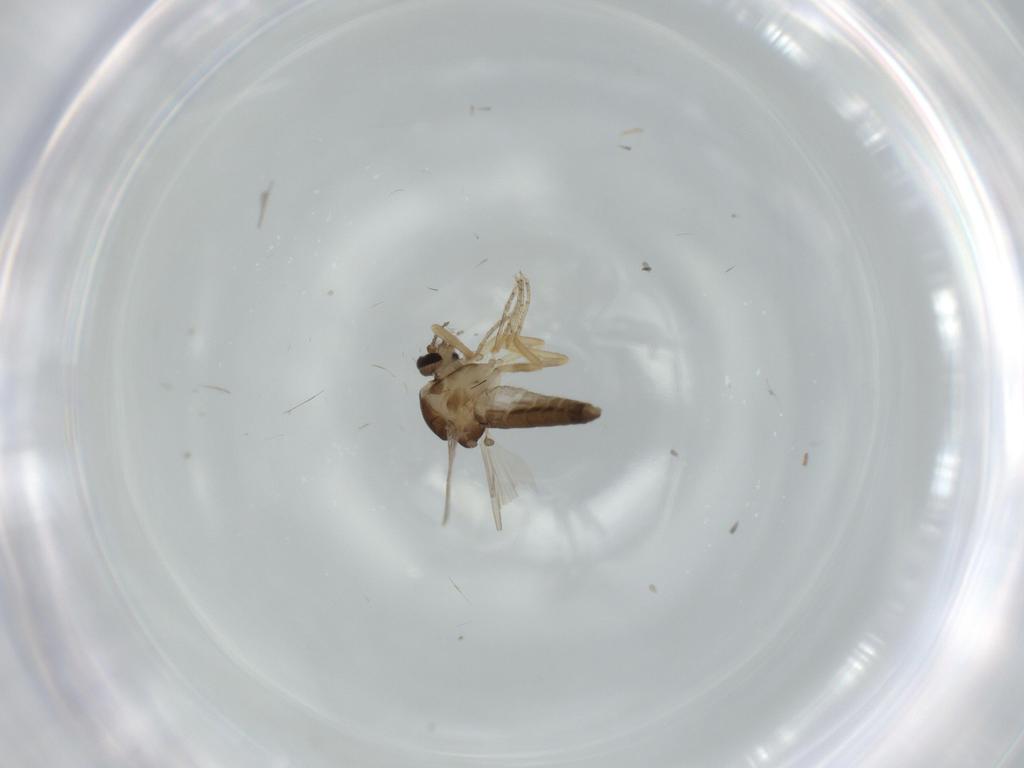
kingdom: Animalia
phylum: Arthropoda
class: Insecta
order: Diptera
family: Ceratopogonidae
